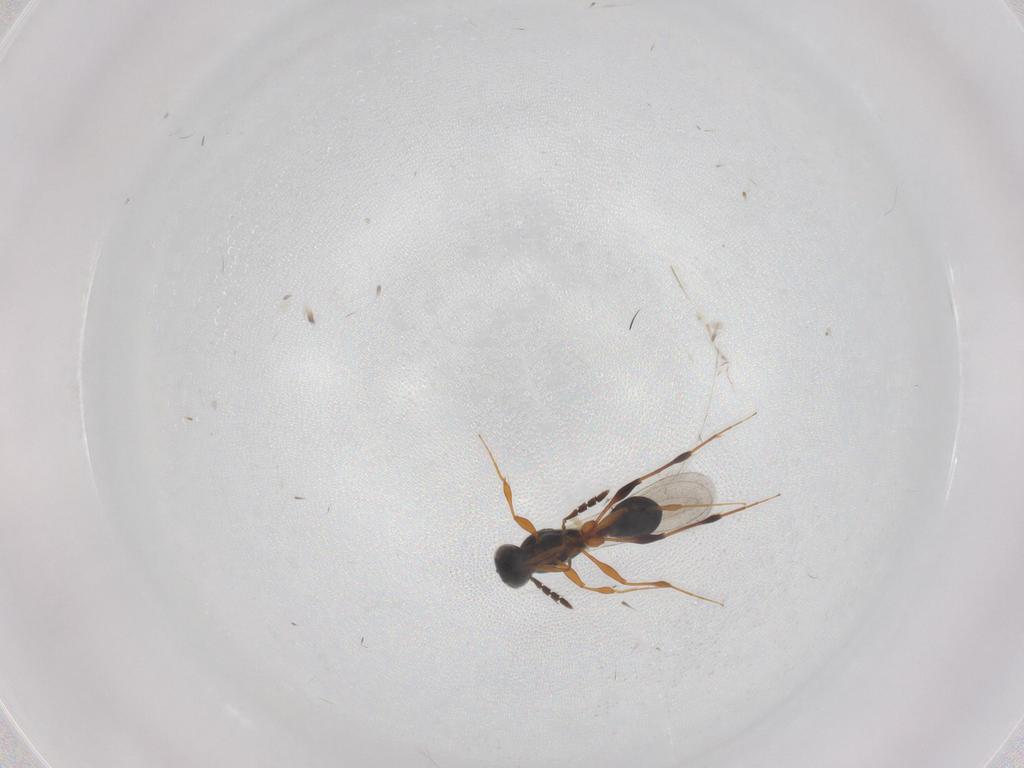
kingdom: Animalia
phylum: Arthropoda
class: Insecta
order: Hymenoptera
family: Platygastridae
